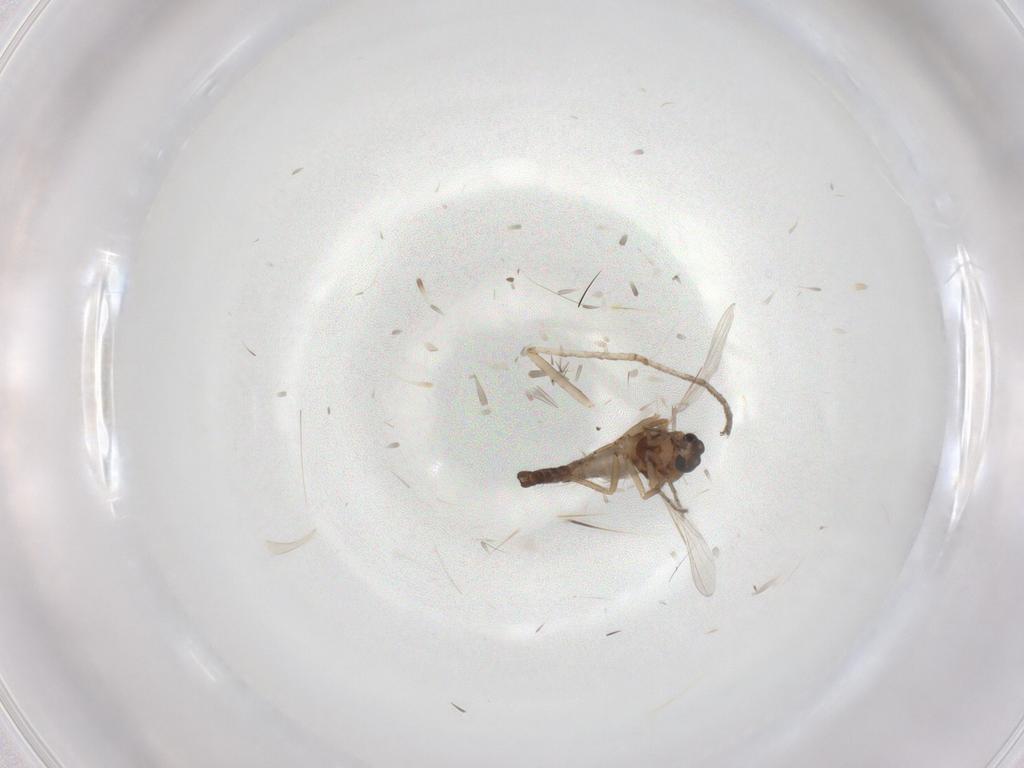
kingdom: Animalia
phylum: Arthropoda
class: Insecta
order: Diptera
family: Ceratopogonidae
